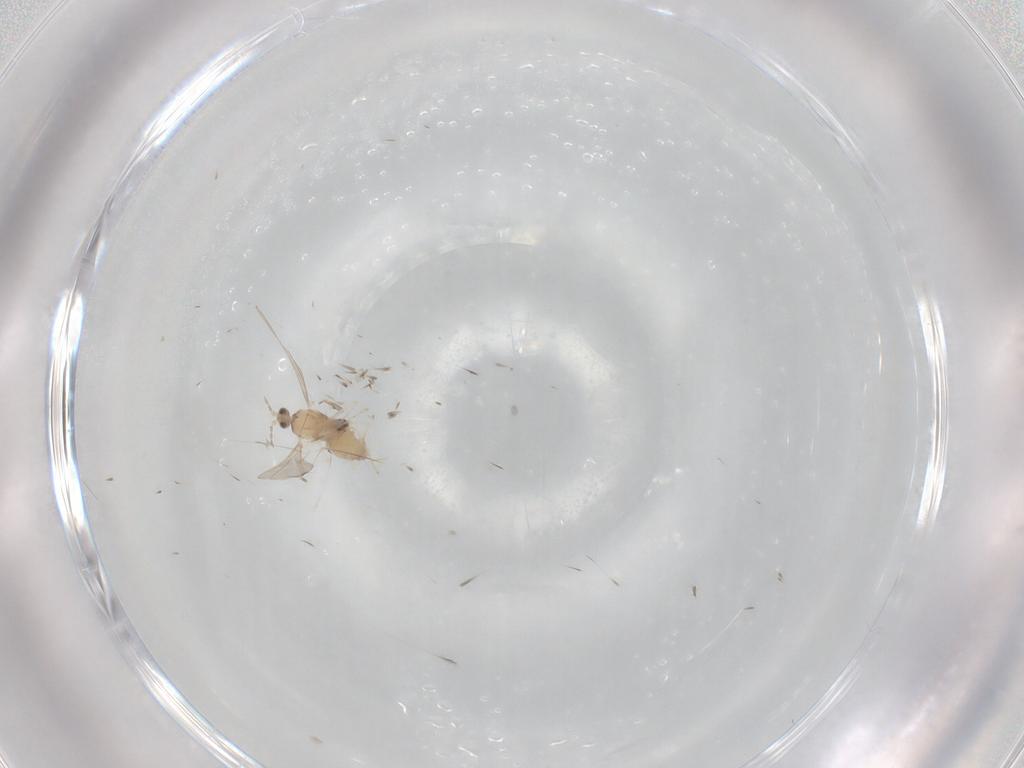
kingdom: Animalia
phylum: Arthropoda
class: Insecta
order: Diptera
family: Cecidomyiidae
